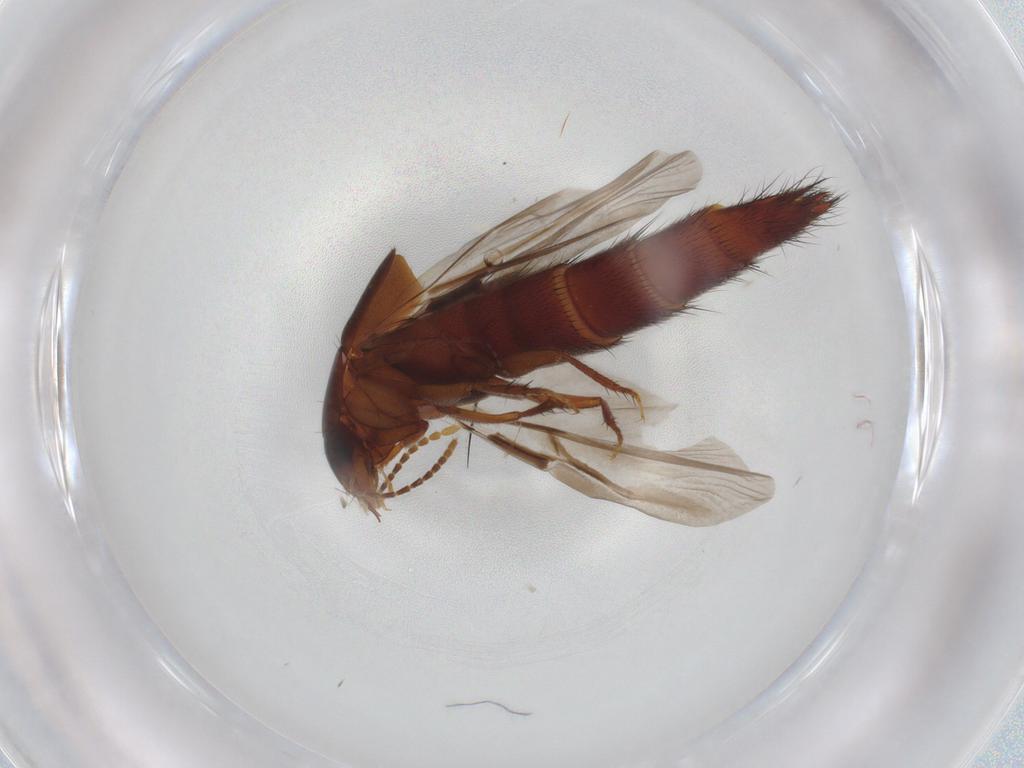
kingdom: Animalia
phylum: Arthropoda
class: Insecta
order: Coleoptera
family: Staphylinidae
